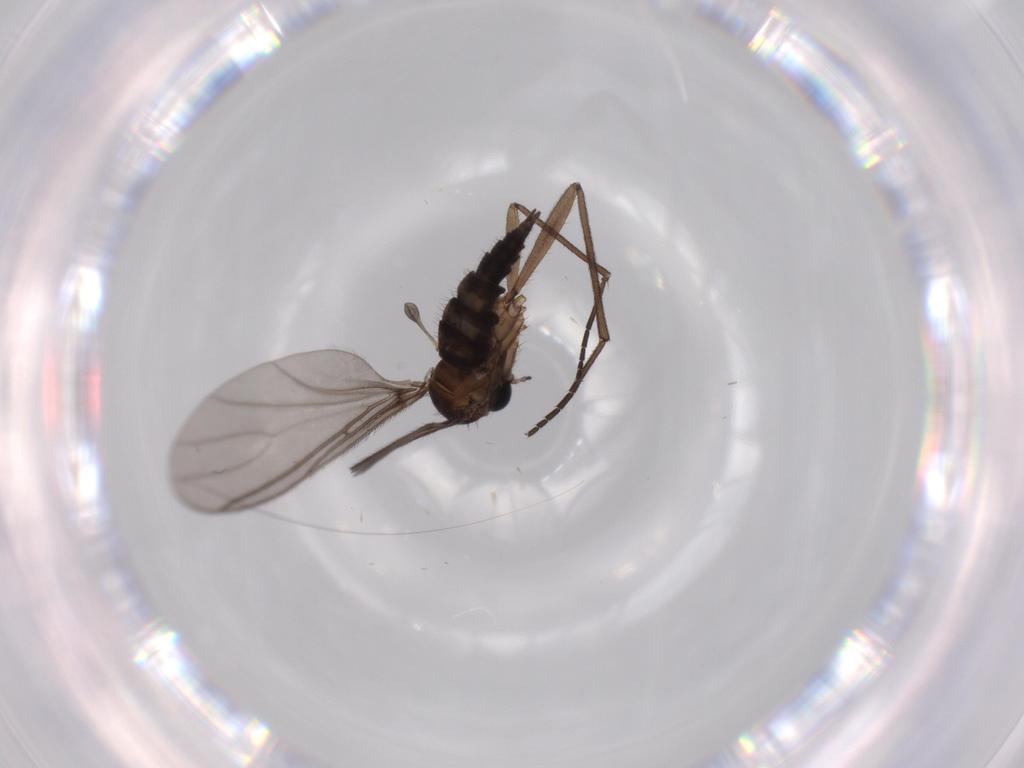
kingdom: Animalia
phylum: Arthropoda
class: Insecta
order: Diptera
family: Sciaridae
